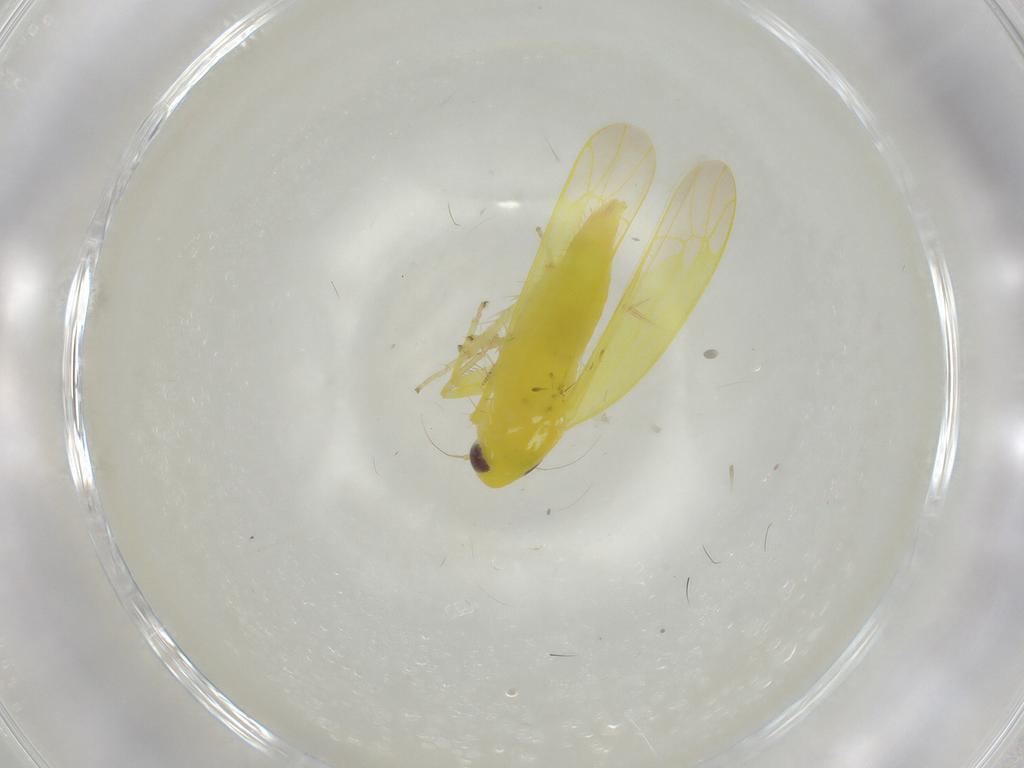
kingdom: Animalia
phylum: Arthropoda
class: Insecta
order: Hemiptera
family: Cicadellidae
